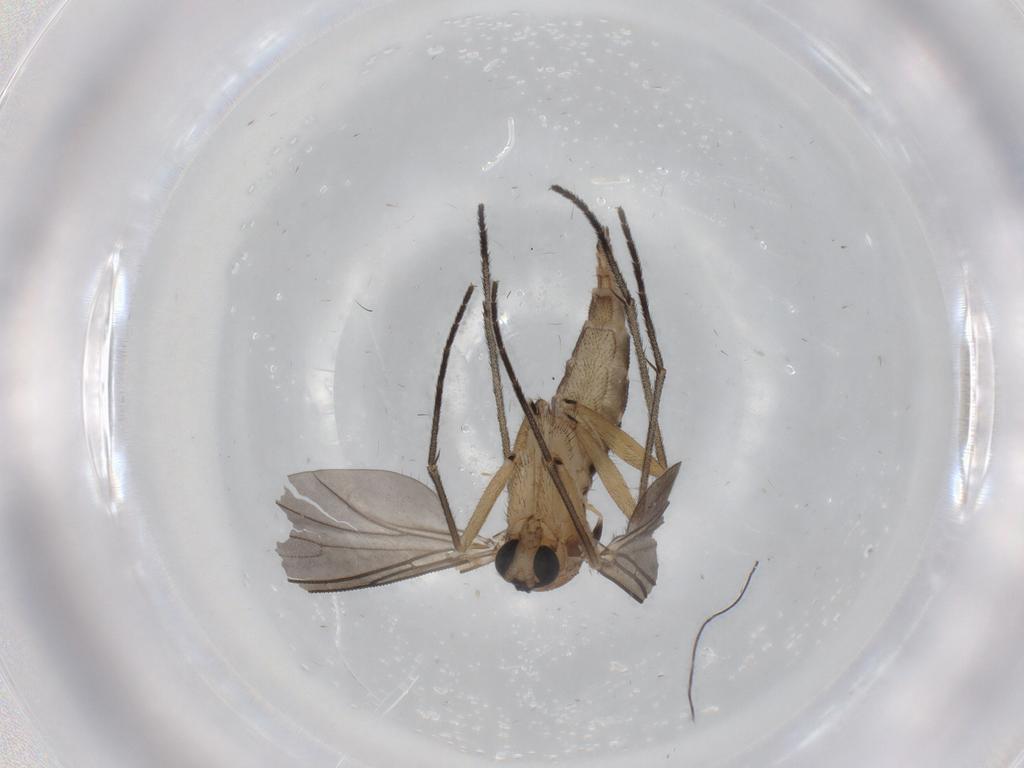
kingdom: Animalia
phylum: Arthropoda
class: Insecta
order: Diptera
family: Sciaridae
